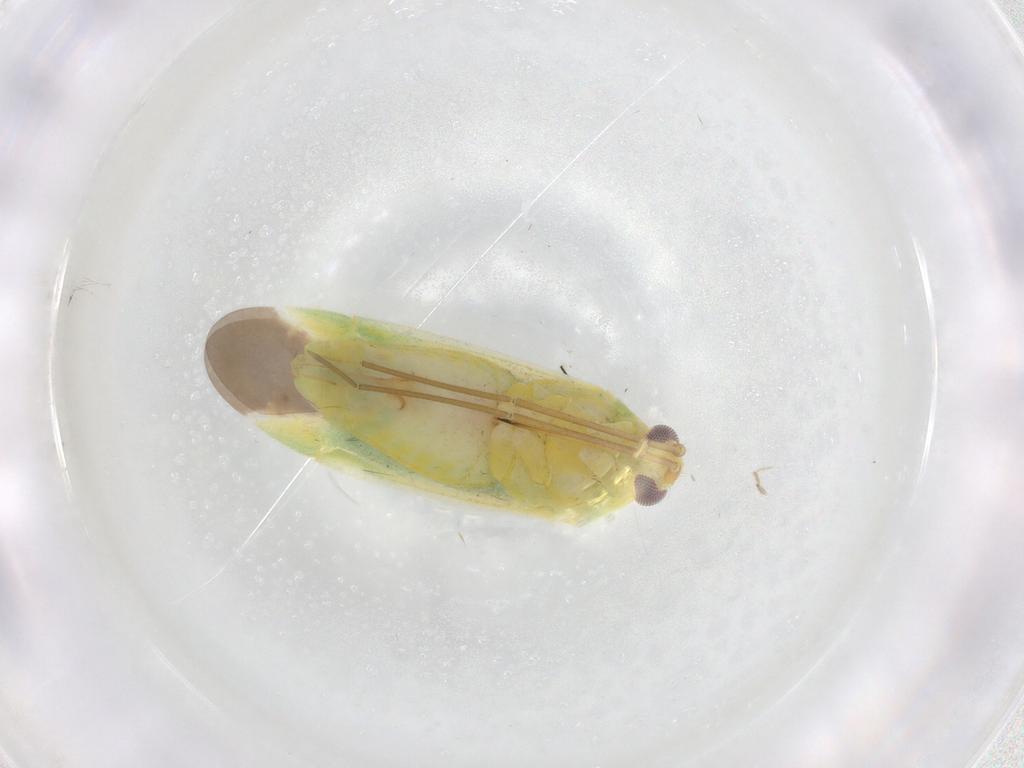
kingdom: Animalia
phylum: Arthropoda
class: Insecta
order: Hemiptera
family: Miridae
